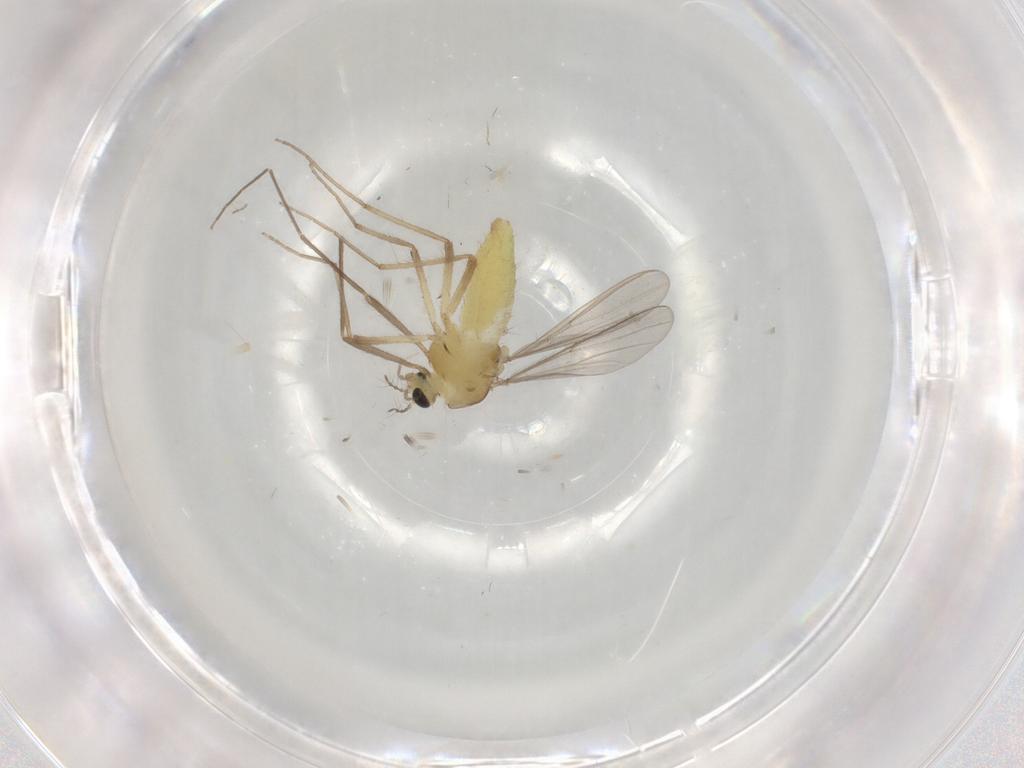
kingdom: Animalia
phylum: Arthropoda
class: Insecta
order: Diptera
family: Chironomidae
